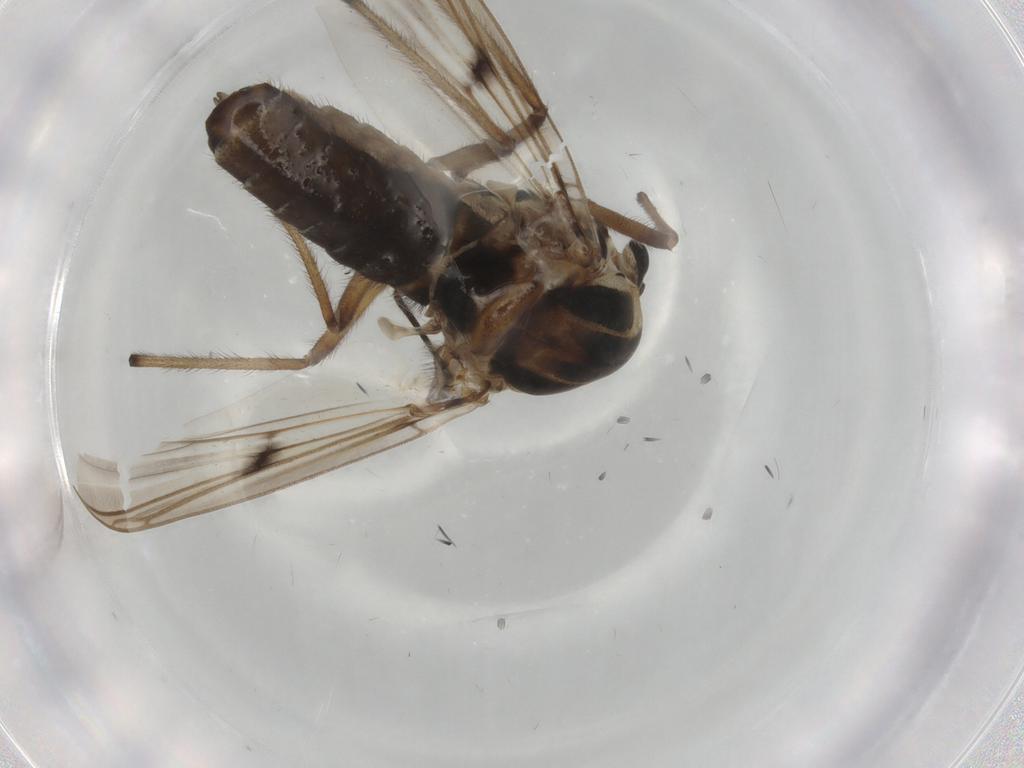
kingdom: Animalia
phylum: Arthropoda
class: Insecta
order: Diptera
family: Chironomidae
